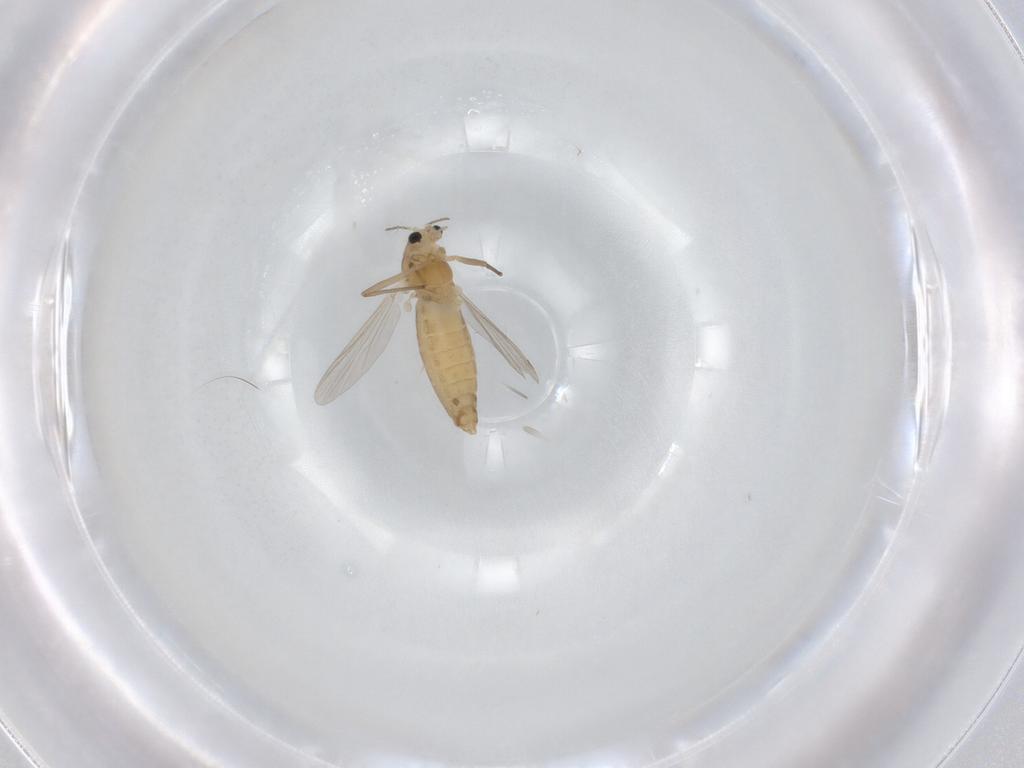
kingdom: Animalia
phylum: Arthropoda
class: Insecta
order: Diptera
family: Chironomidae
